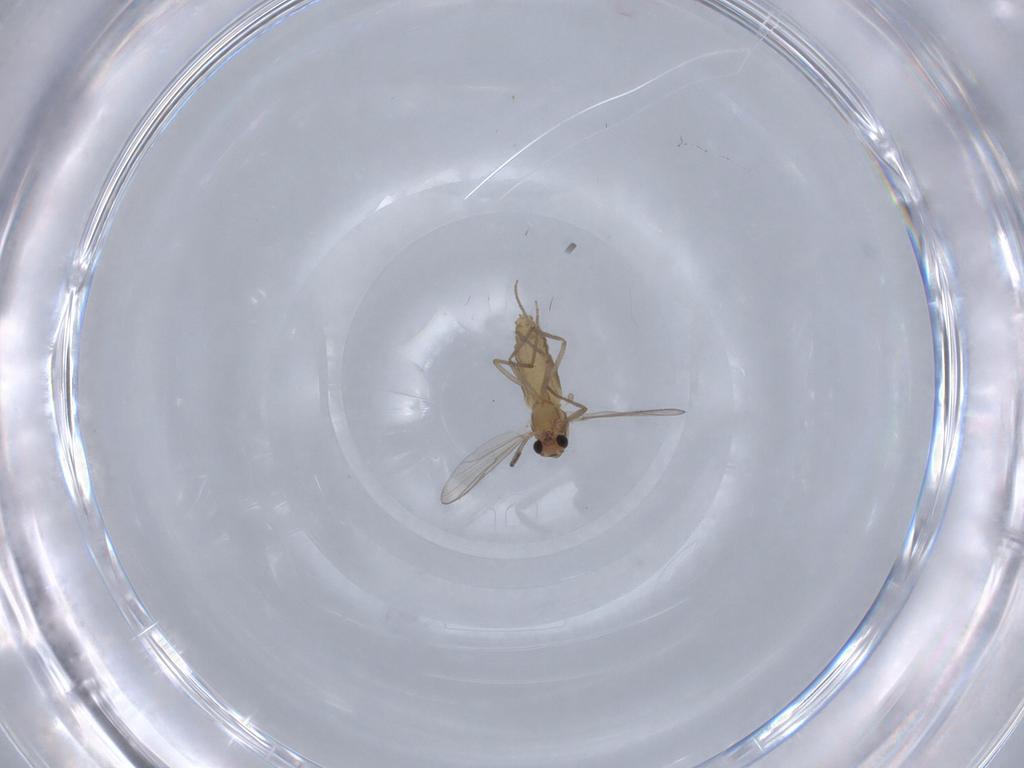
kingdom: Animalia
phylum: Arthropoda
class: Insecta
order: Diptera
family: Chironomidae
